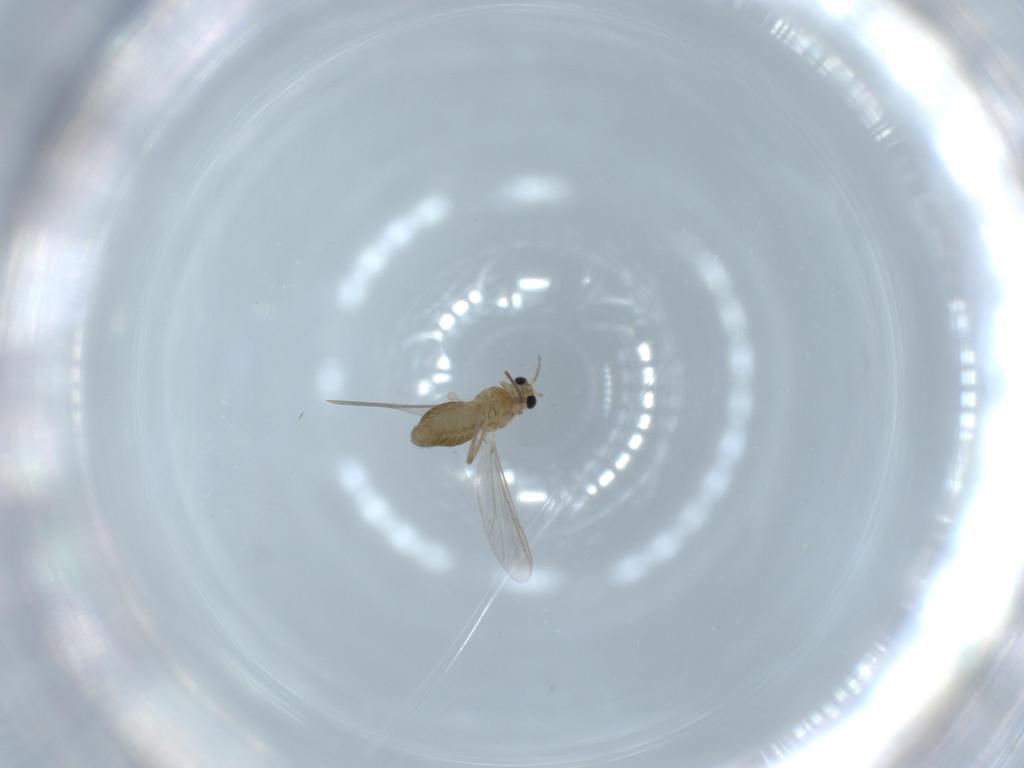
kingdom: Animalia
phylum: Arthropoda
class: Insecta
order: Diptera
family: Chironomidae
